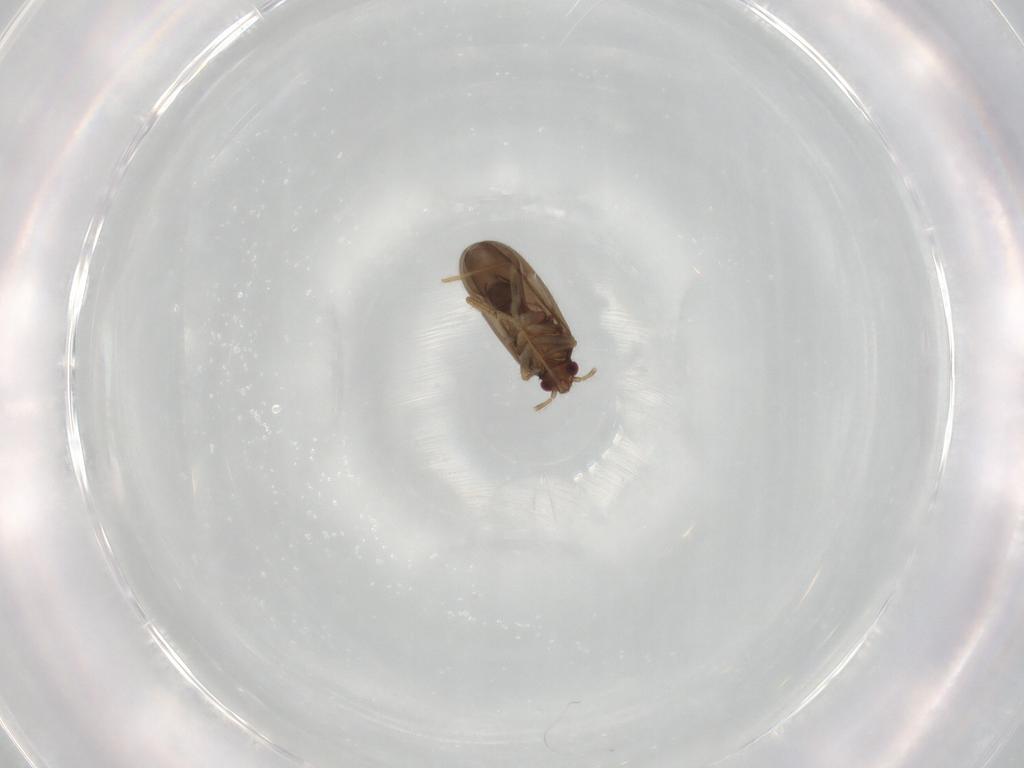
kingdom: Animalia
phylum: Arthropoda
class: Insecta
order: Hemiptera
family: Ceratocombidae
